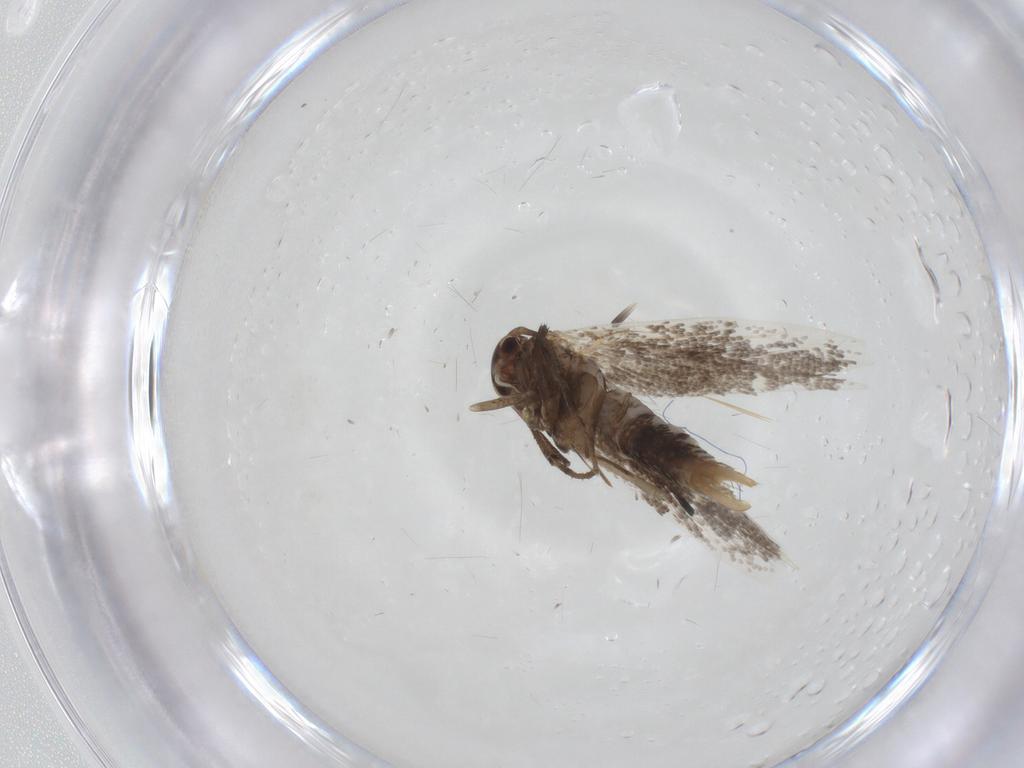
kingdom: Animalia
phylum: Arthropoda
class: Insecta
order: Lepidoptera
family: Elachistidae
